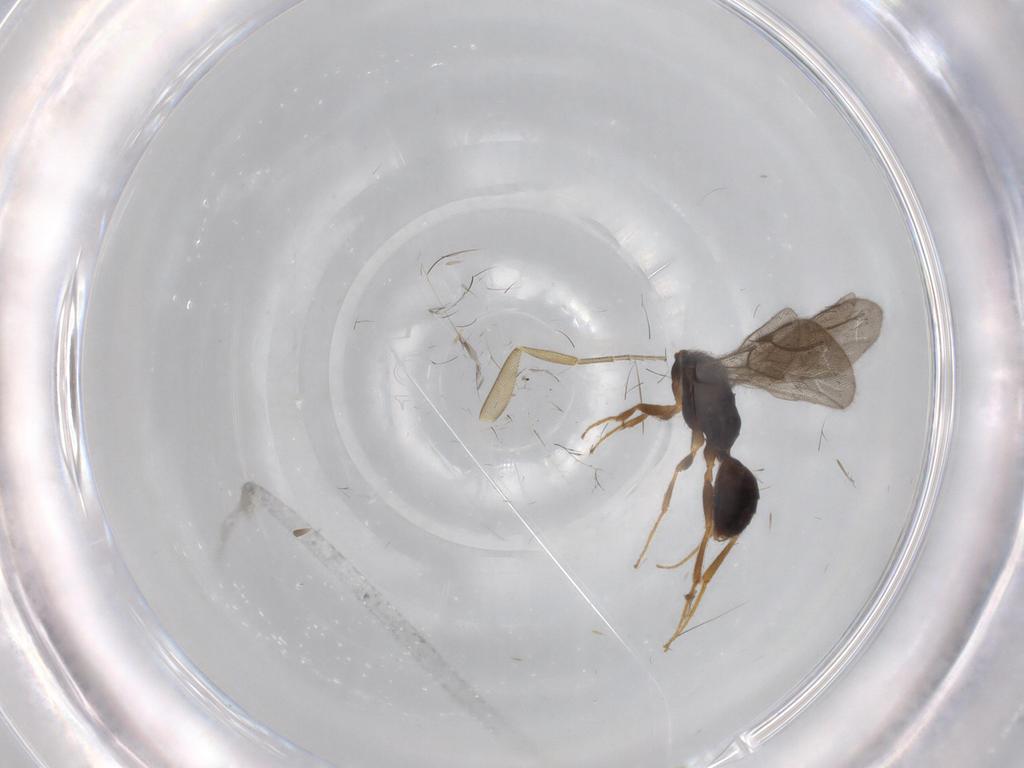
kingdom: Animalia
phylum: Arthropoda
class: Insecta
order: Hymenoptera
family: Bethylidae
